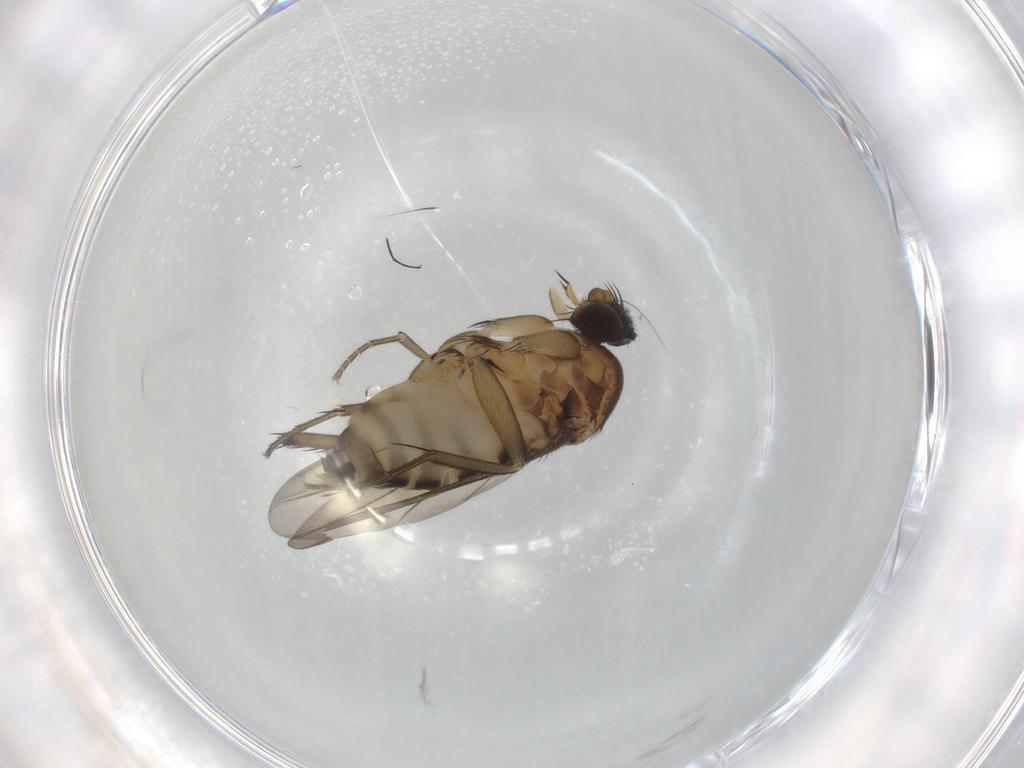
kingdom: Animalia
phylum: Arthropoda
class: Insecta
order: Diptera
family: Phoridae
